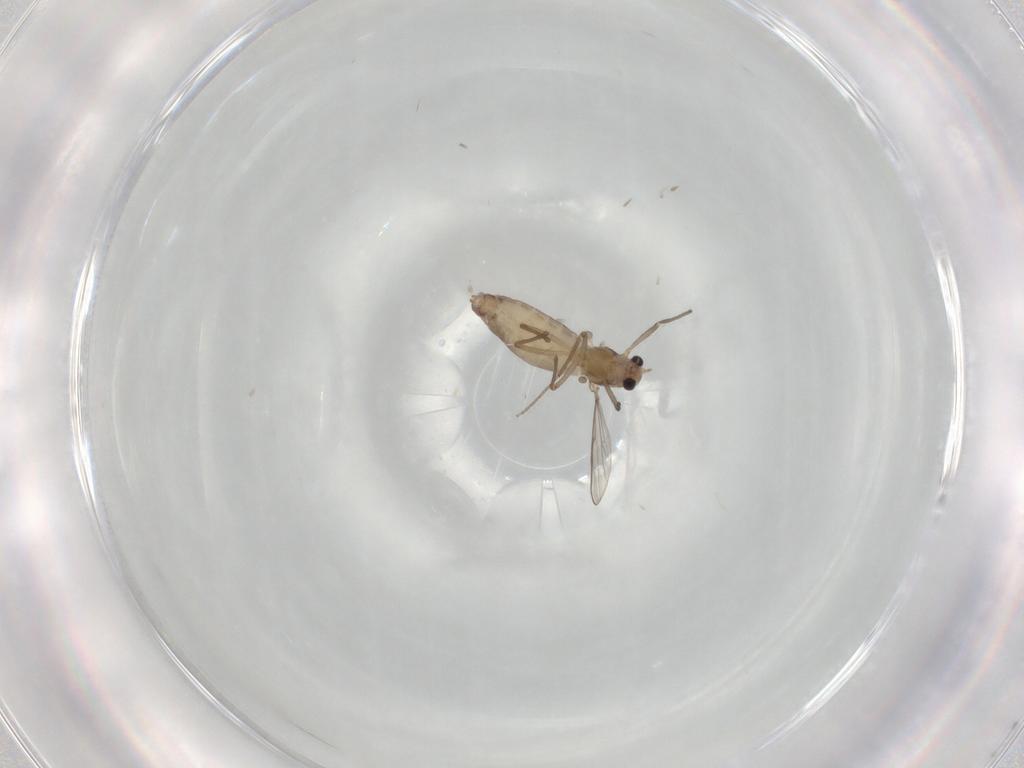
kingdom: Animalia
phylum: Arthropoda
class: Insecta
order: Diptera
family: Chironomidae
